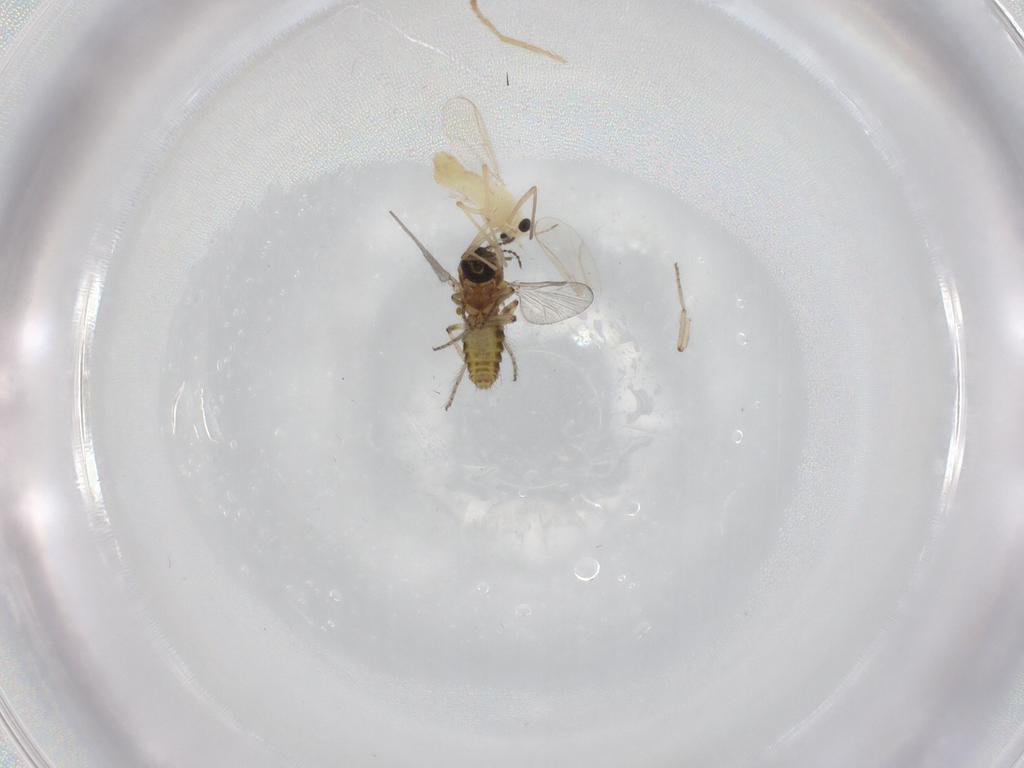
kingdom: Animalia
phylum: Arthropoda
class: Insecta
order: Diptera
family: Ceratopogonidae
